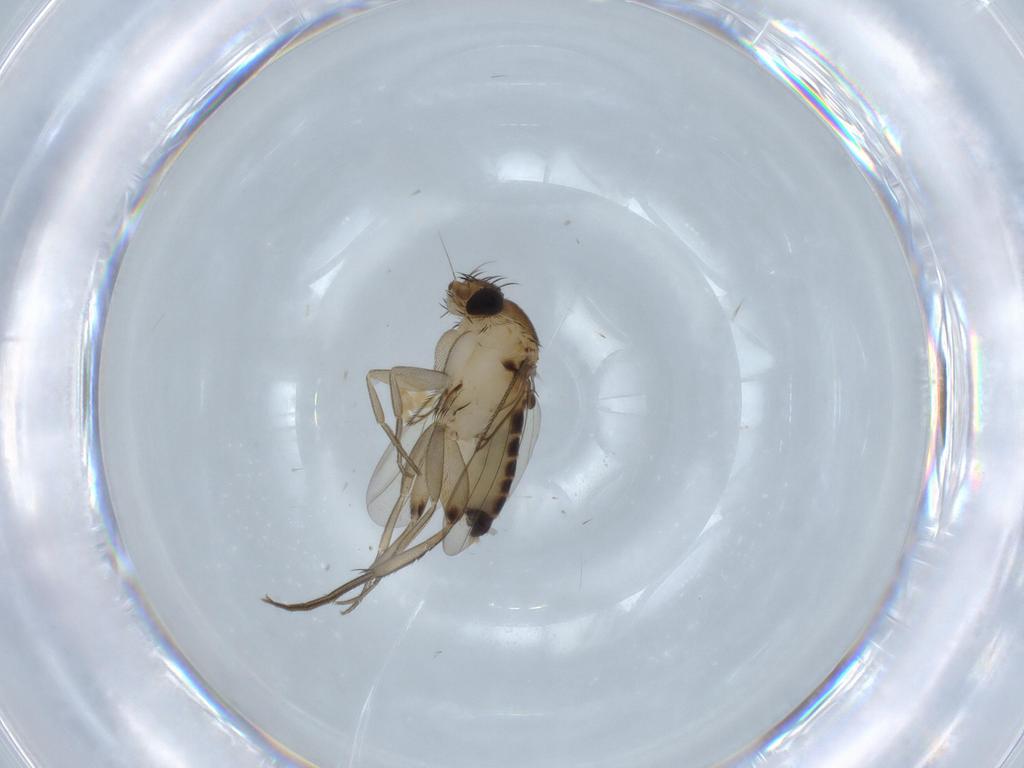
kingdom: Animalia
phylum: Arthropoda
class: Insecta
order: Diptera
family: Phoridae
